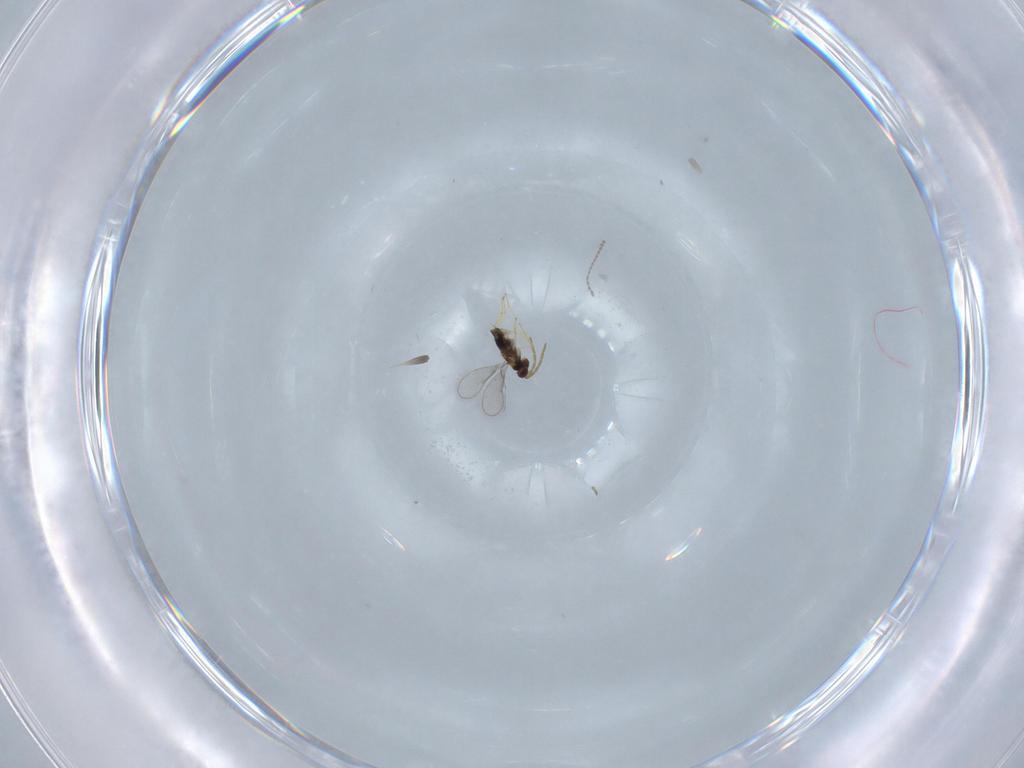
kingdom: Animalia
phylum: Arthropoda
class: Insecta
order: Hymenoptera
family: Aphelinidae
